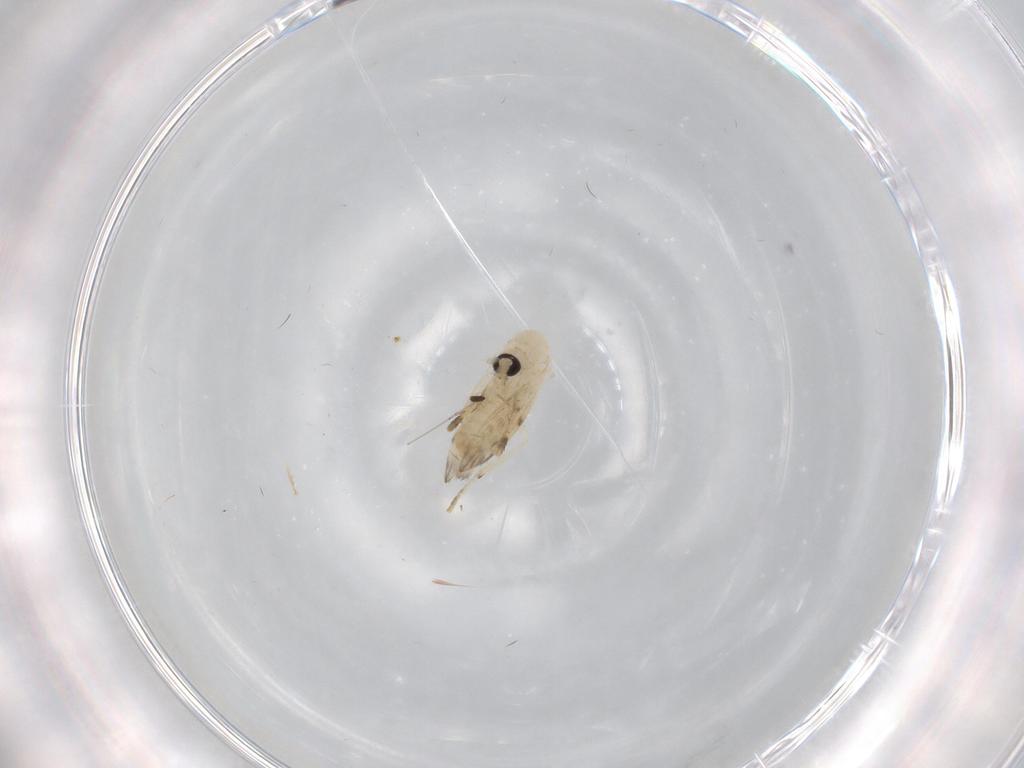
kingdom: Animalia
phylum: Arthropoda
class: Insecta
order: Diptera
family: Psychodidae
